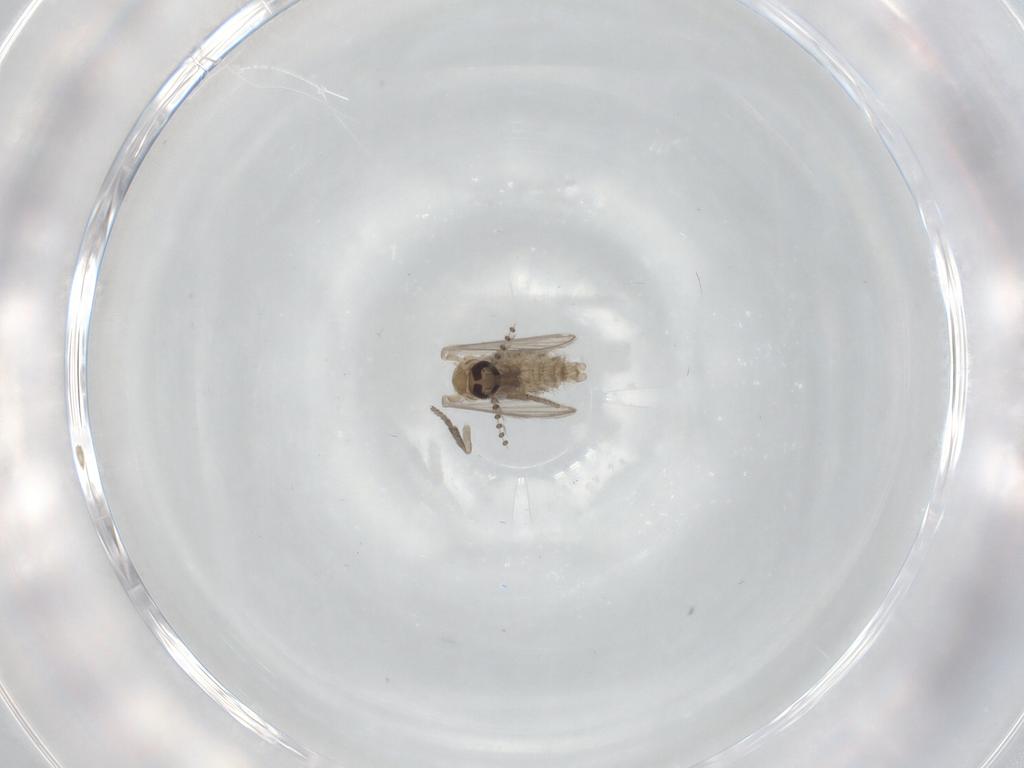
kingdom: Animalia
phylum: Arthropoda
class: Insecta
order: Diptera
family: Psychodidae
